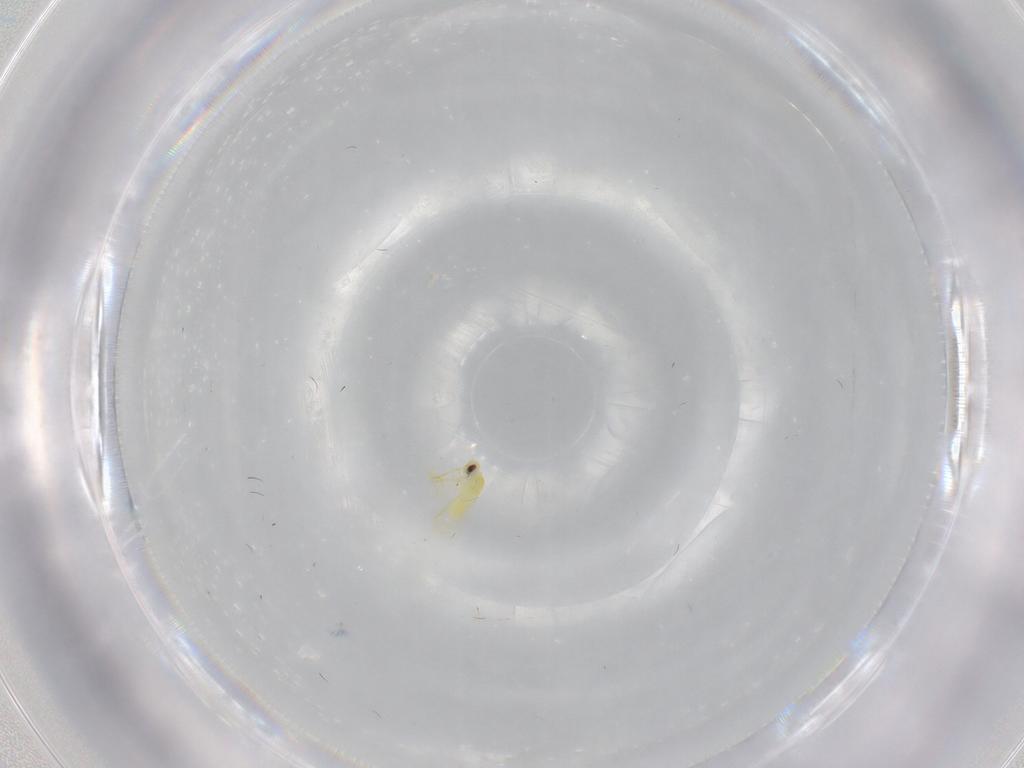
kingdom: Animalia
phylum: Arthropoda
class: Insecta
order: Hemiptera
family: Aleyrodidae
